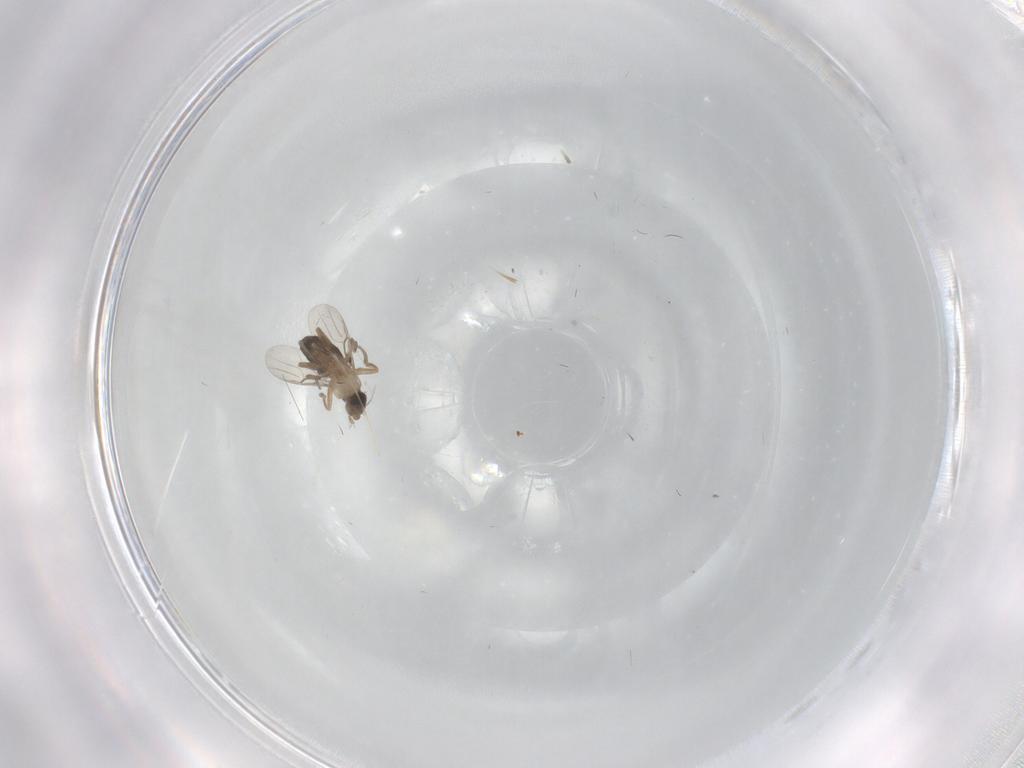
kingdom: Animalia
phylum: Arthropoda
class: Insecta
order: Diptera
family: Phoridae
